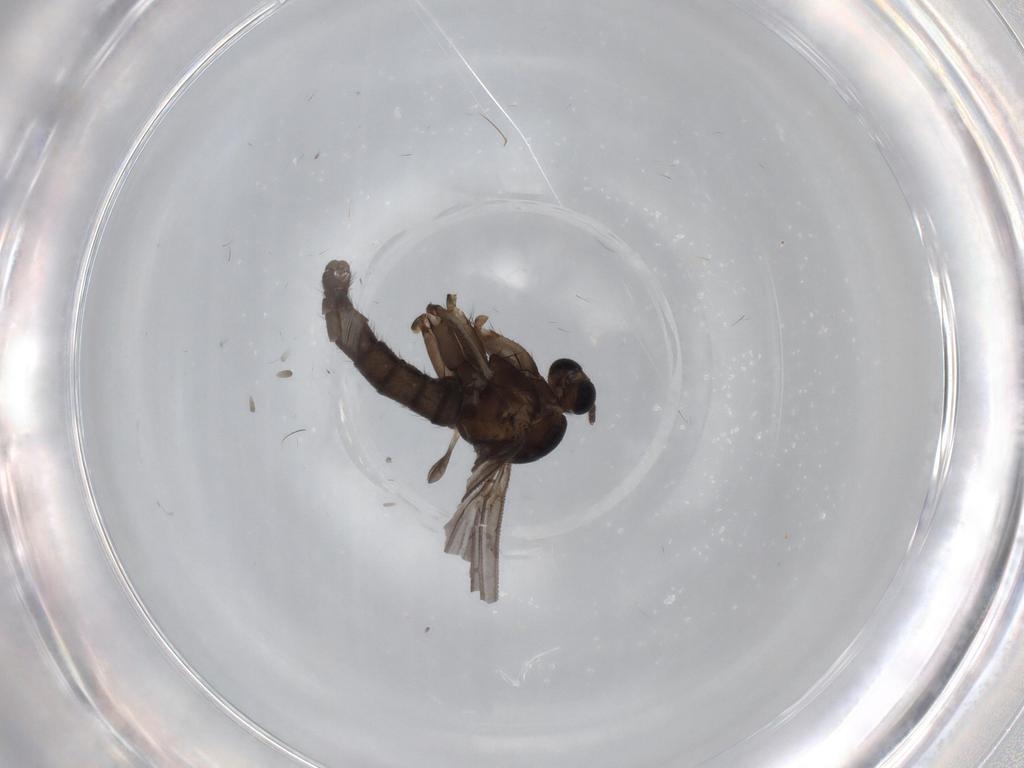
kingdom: Animalia
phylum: Arthropoda
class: Insecta
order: Diptera
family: Sciaridae
